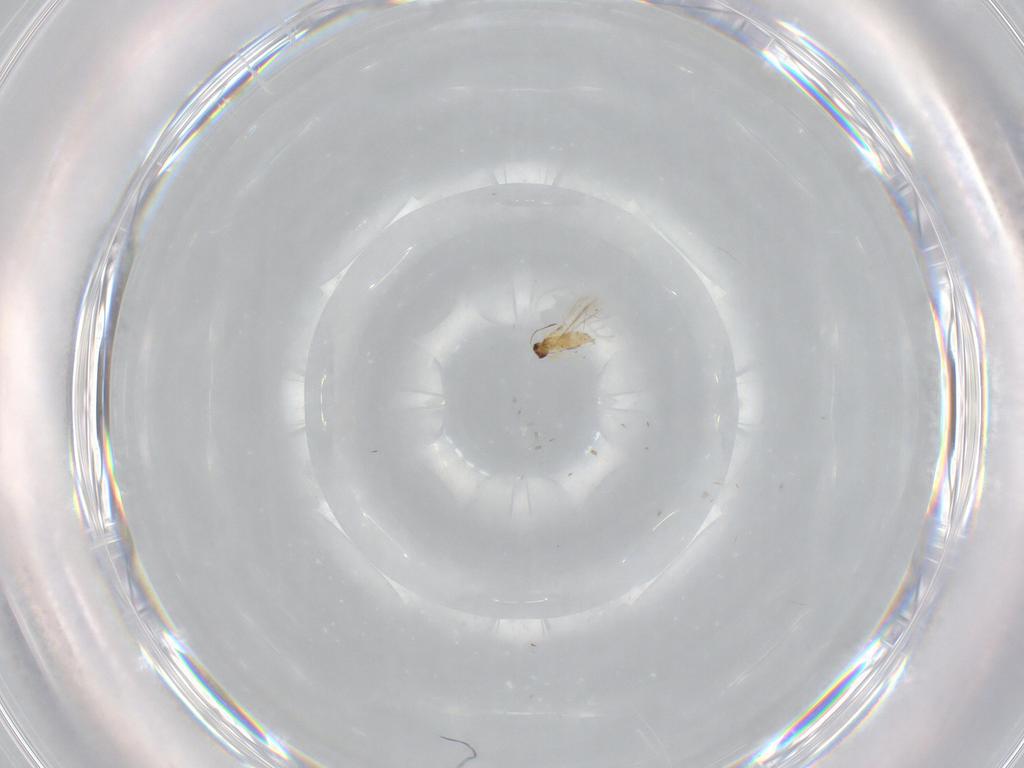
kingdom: Animalia
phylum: Arthropoda
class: Insecta
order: Hymenoptera
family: Mymaridae
